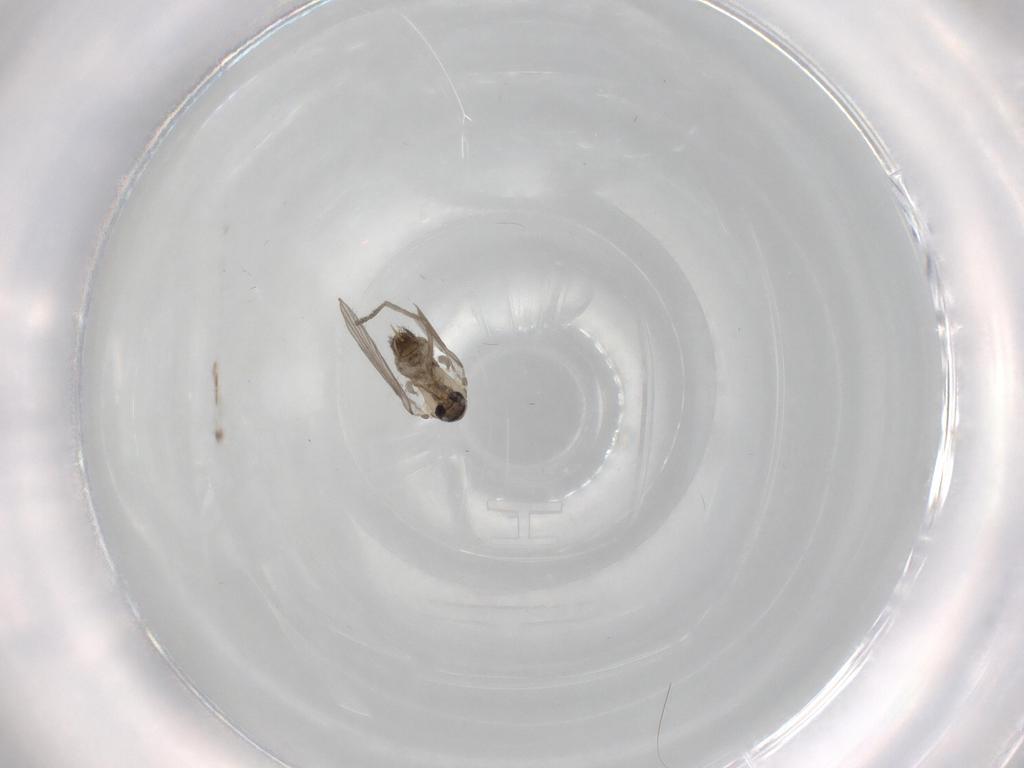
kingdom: Animalia
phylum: Arthropoda
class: Insecta
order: Diptera
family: Psychodidae
